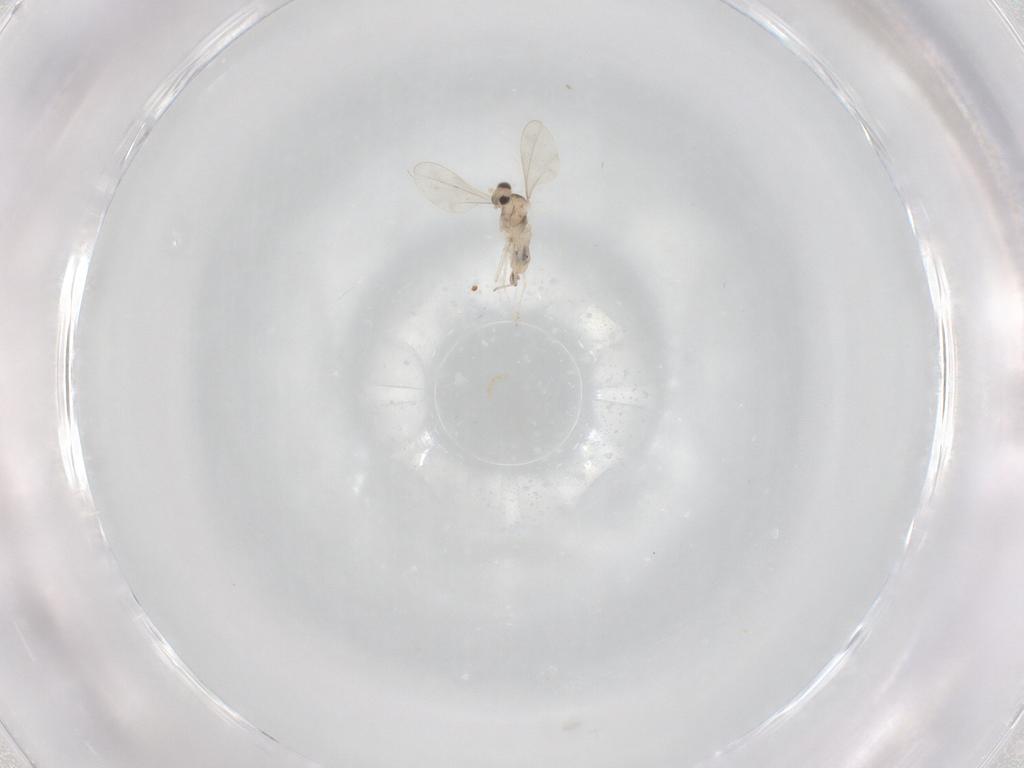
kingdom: Animalia
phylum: Arthropoda
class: Insecta
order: Diptera
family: Cecidomyiidae
